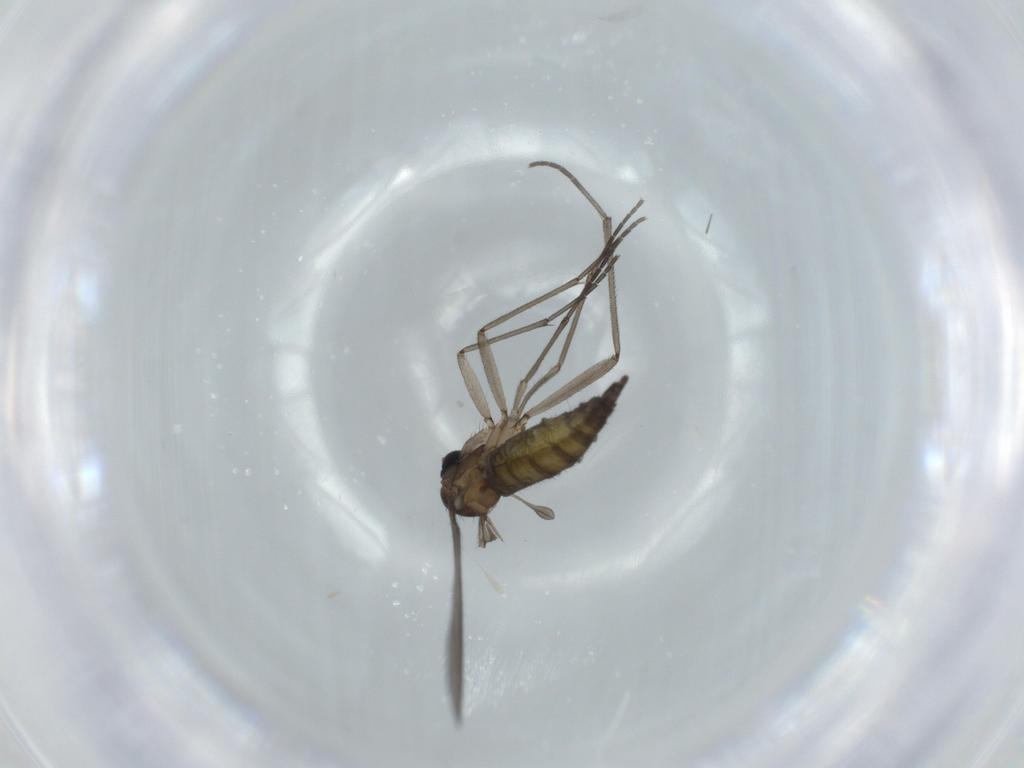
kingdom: Animalia
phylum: Arthropoda
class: Insecta
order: Diptera
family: Sciaridae
